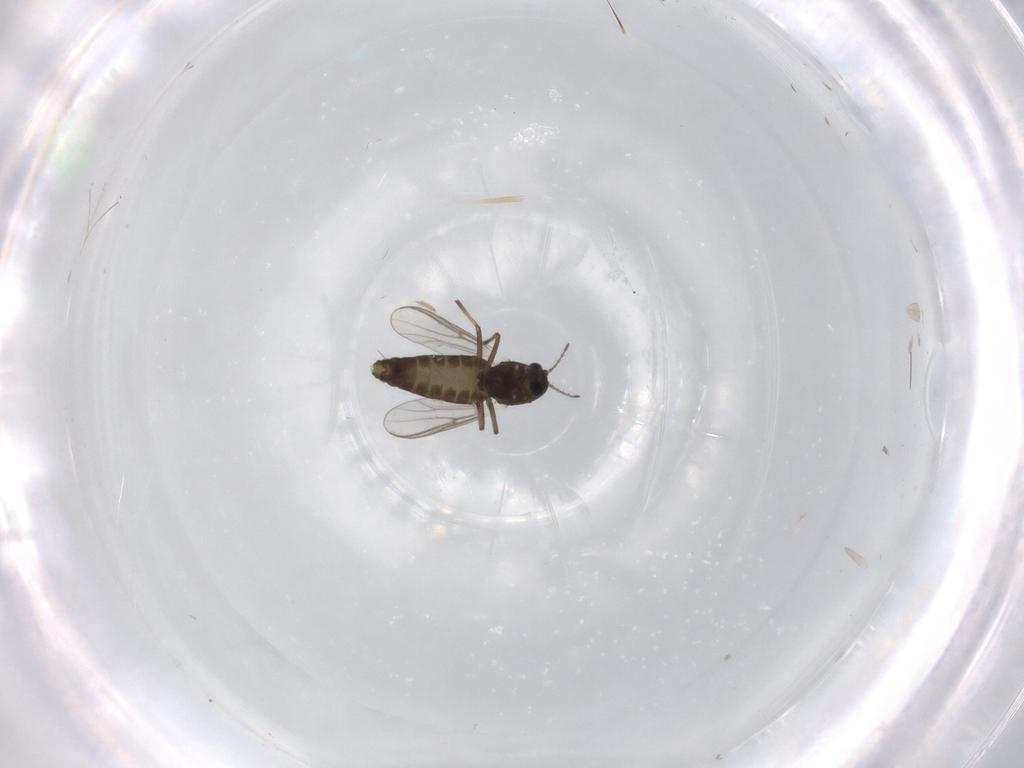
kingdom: Animalia
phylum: Arthropoda
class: Insecta
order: Diptera
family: Chironomidae
